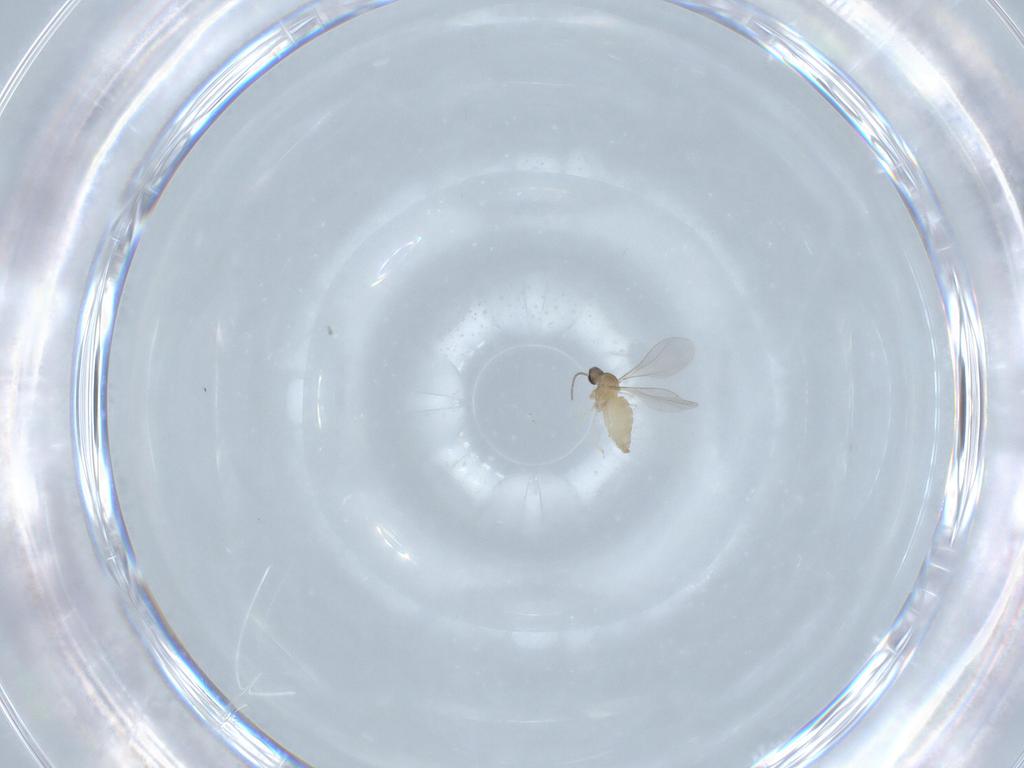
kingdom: Animalia
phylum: Arthropoda
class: Insecta
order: Diptera
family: Cecidomyiidae
